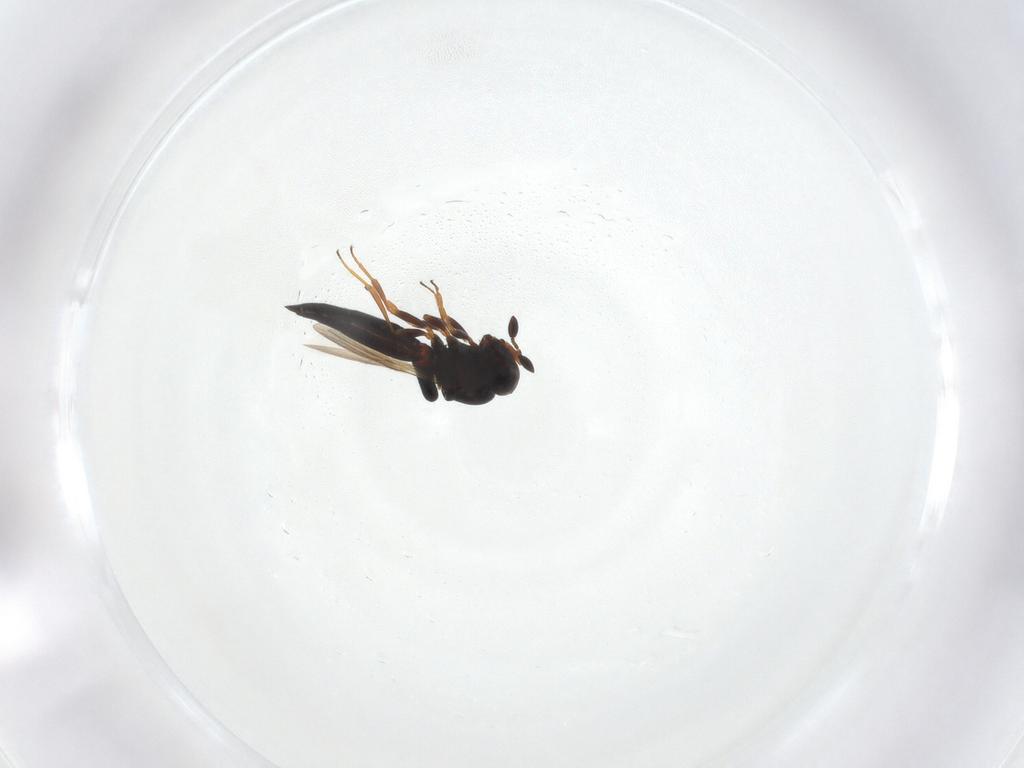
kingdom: Animalia
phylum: Arthropoda
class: Insecta
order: Hymenoptera
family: Scelionidae
